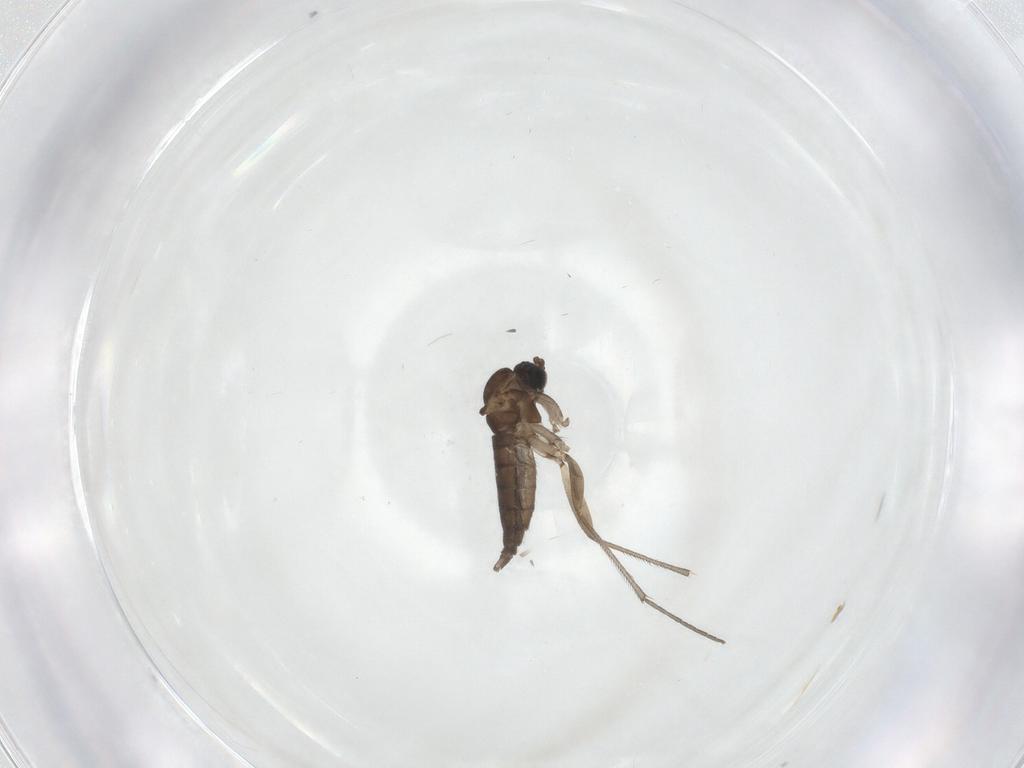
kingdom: Animalia
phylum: Arthropoda
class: Insecta
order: Diptera
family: Sciaridae
